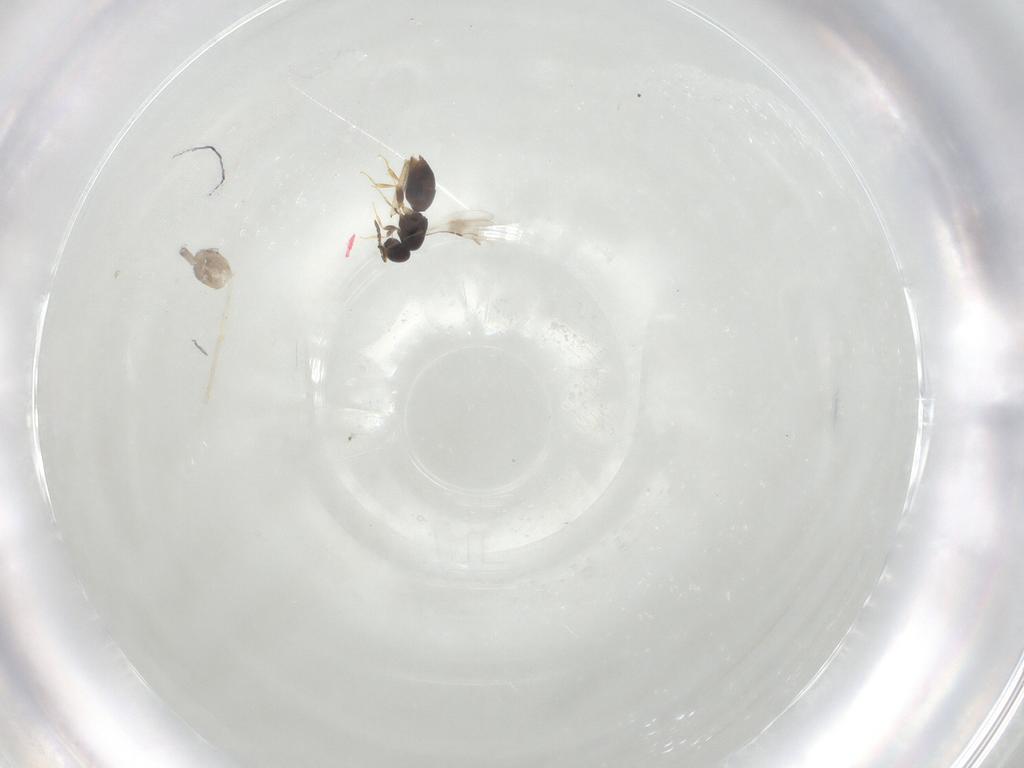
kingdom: Animalia
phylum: Arthropoda
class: Insecta
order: Hymenoptera
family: Ceraphronidae
